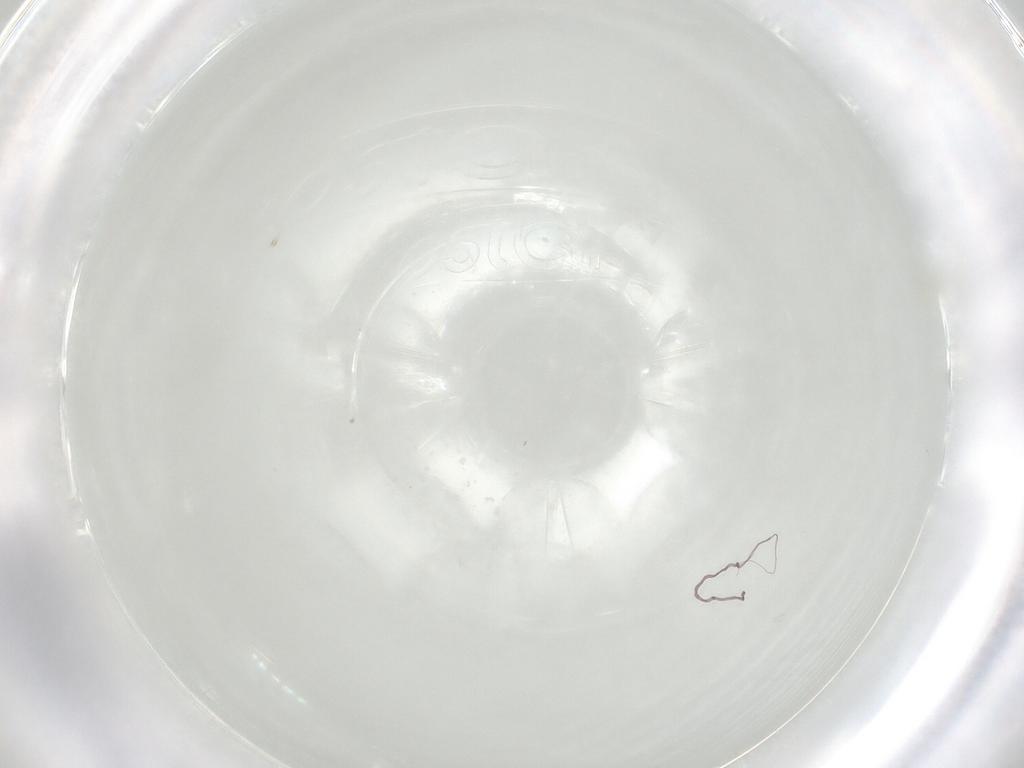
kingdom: Animalia
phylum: Arthropoda
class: Arachnida
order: Trombidiformes
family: Eupodidae
